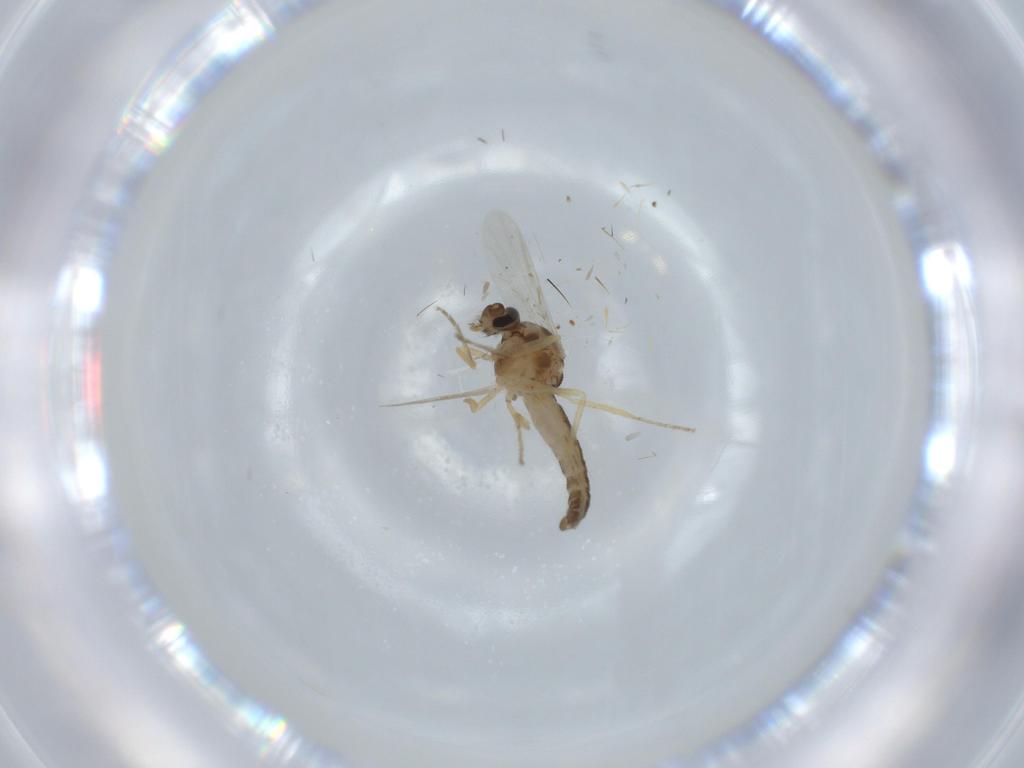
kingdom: Animalia
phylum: Arthropoda
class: Insecta
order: Diptera
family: Ceratopogonidae
